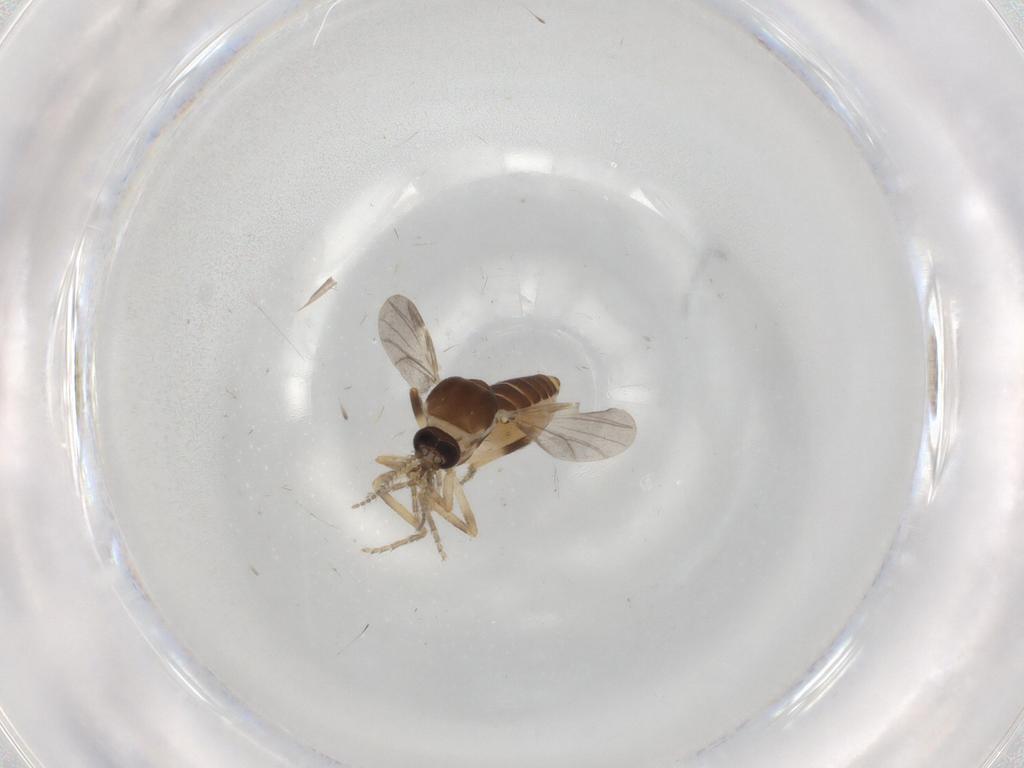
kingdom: Animalia
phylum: Arthropoda
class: Insecta
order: Diptera
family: Ceratopogonidae
